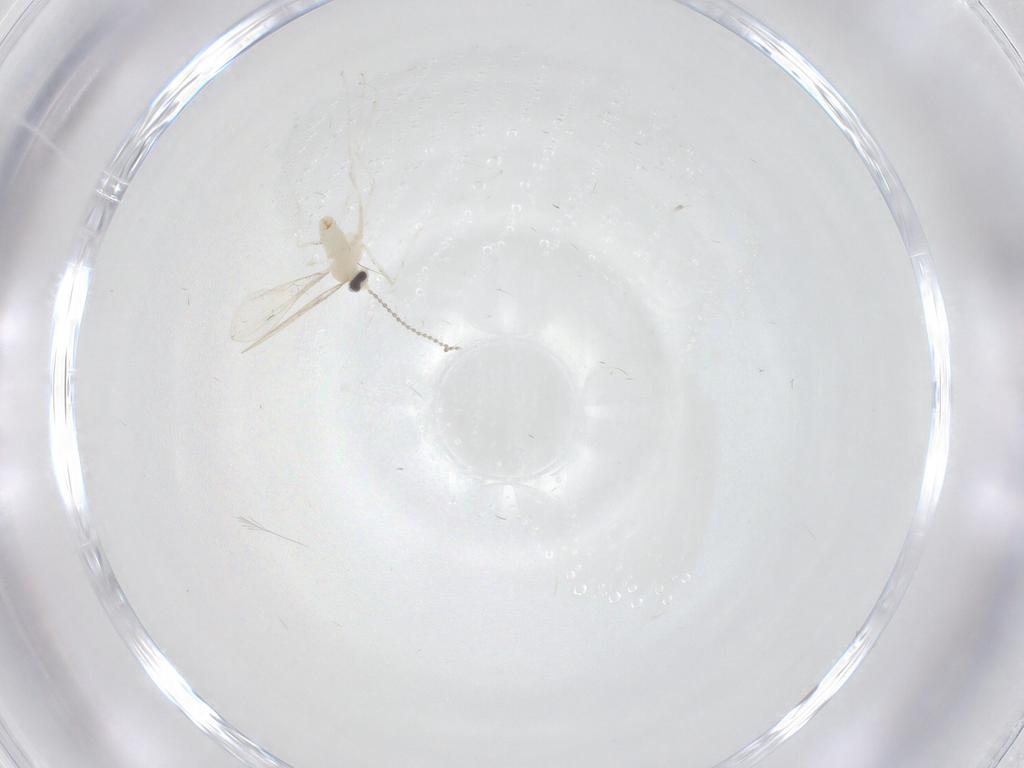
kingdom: Animalia
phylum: Arthropoda
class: Insecta
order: Diptera
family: Cecidomyiidae
